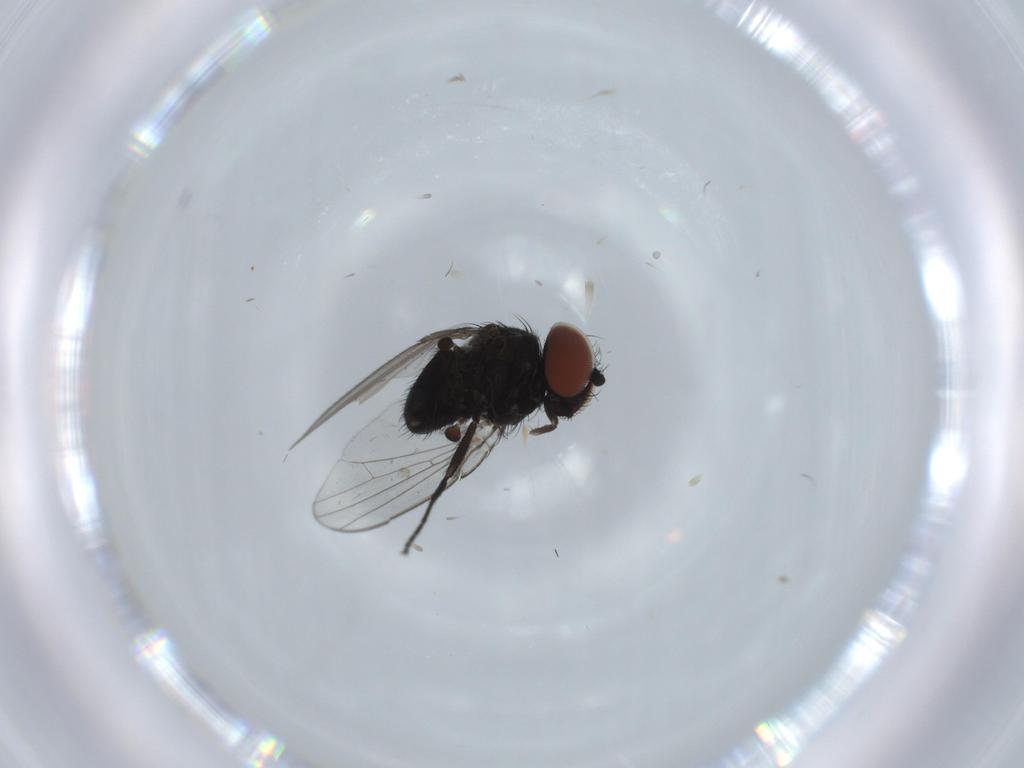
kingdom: Animalia
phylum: Arthropoda
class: Insecta
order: Diptera
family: Milichiidae
